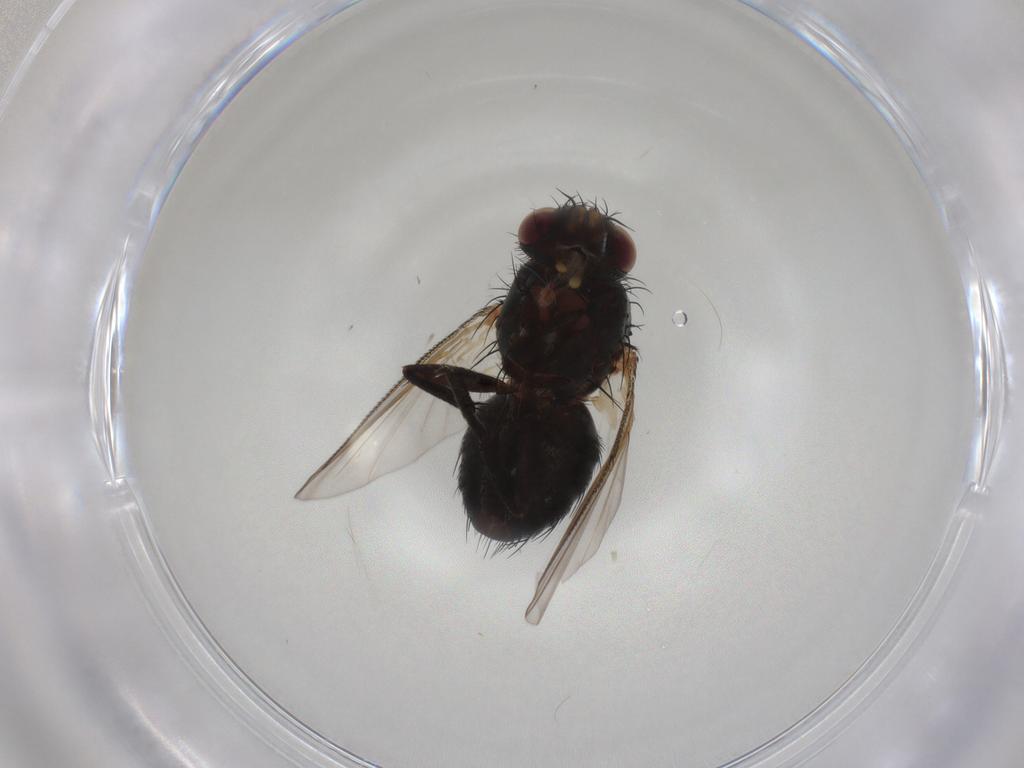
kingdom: Animalia
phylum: Arthropoda
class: Insecta
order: Diptera
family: Tachinidae
